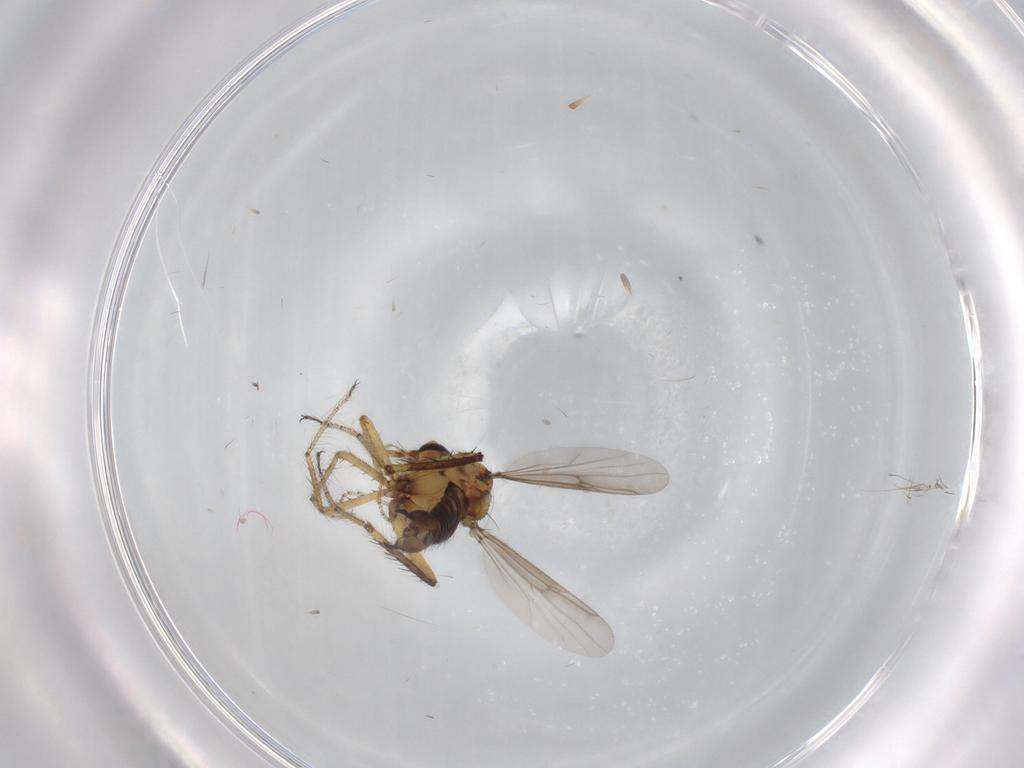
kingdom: Animalia
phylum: Arthropoda
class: Insecta
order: Diptera
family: Ceratopogonidae
